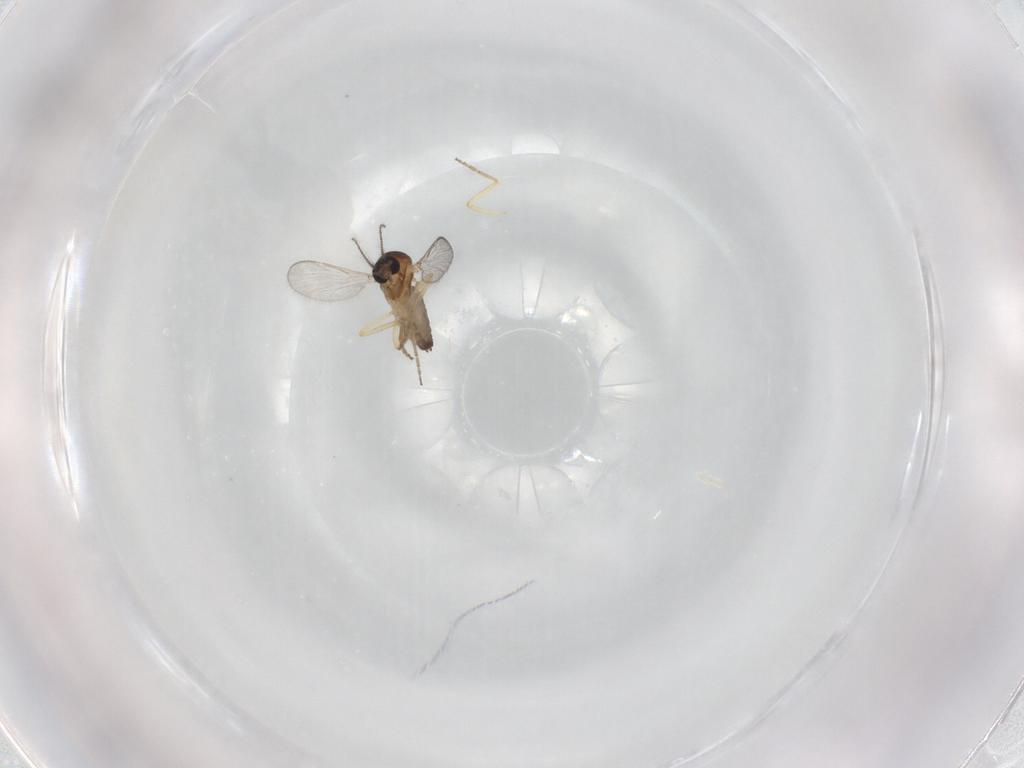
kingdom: Animalia
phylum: Arthropoda
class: Insecta
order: Diptera
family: Ceratopogonidae
